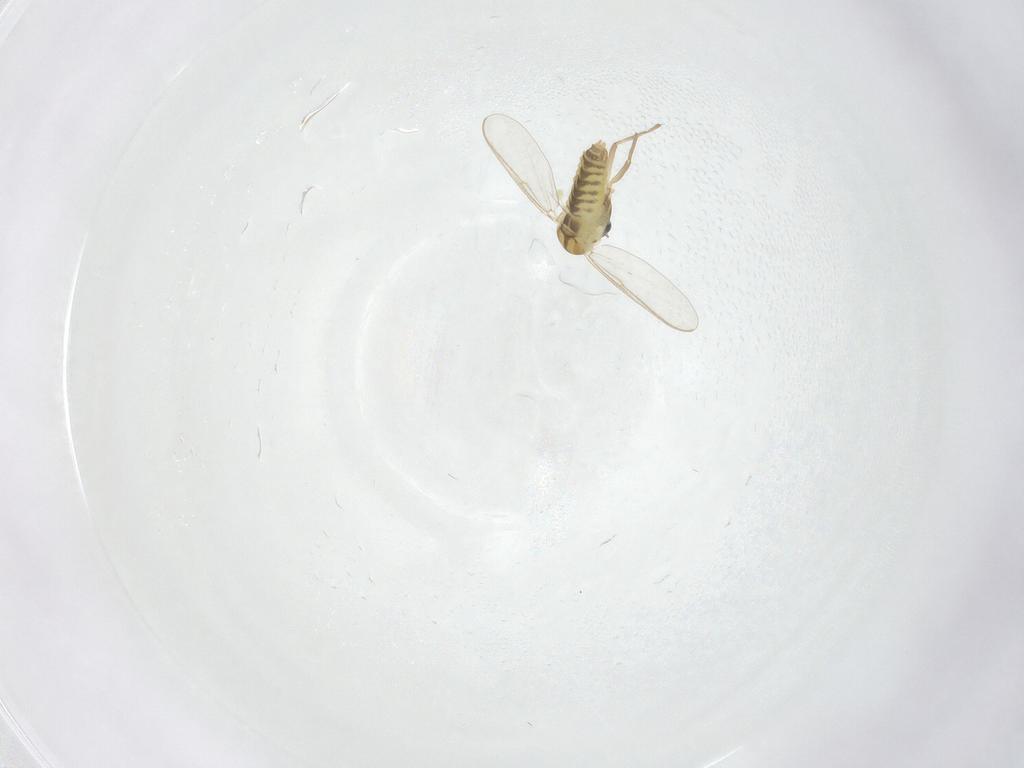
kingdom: Animalia
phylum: Arthropoda
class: Insecta
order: Diptera
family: Chironomidae
